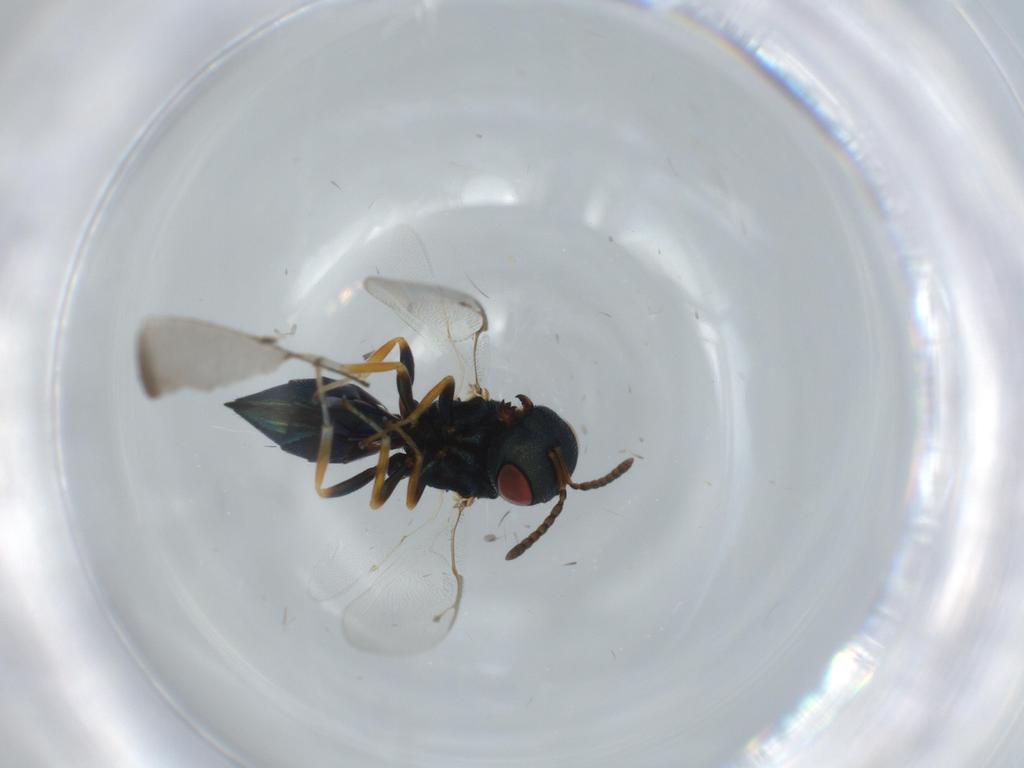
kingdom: Animalia
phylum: Arthropoda
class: Insecta
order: Hymenoptera
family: Pteromalidae
